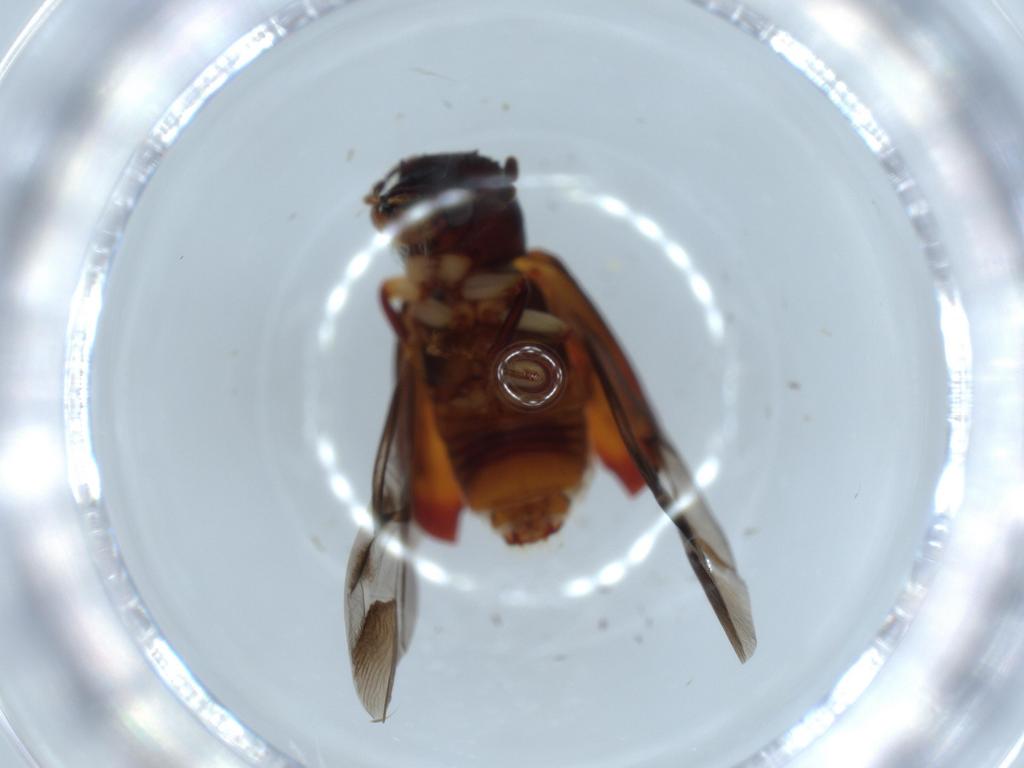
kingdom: Animalia
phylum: Arthropoda
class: Insecta
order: Coleoptera
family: Bostrichidae
